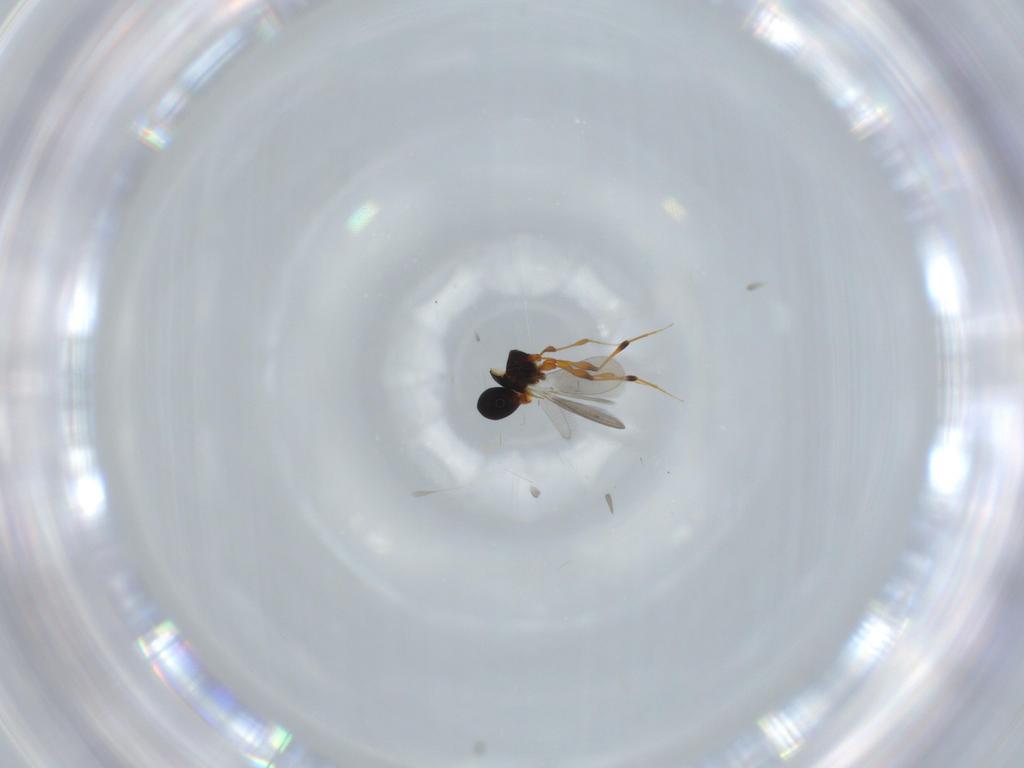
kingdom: Animalia
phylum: Arthropoda
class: Insecta
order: Hymenoptera
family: Platygastridae
